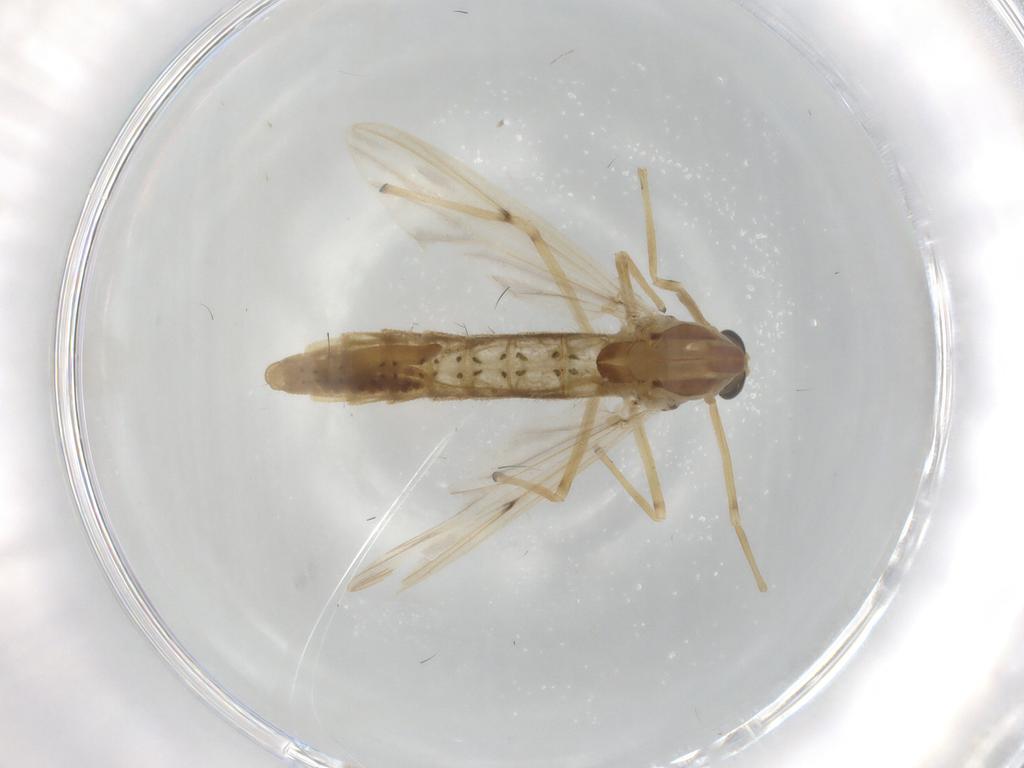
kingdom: Animalia
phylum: Arthropoda
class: Insecta
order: Diptera
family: Chironomidae
